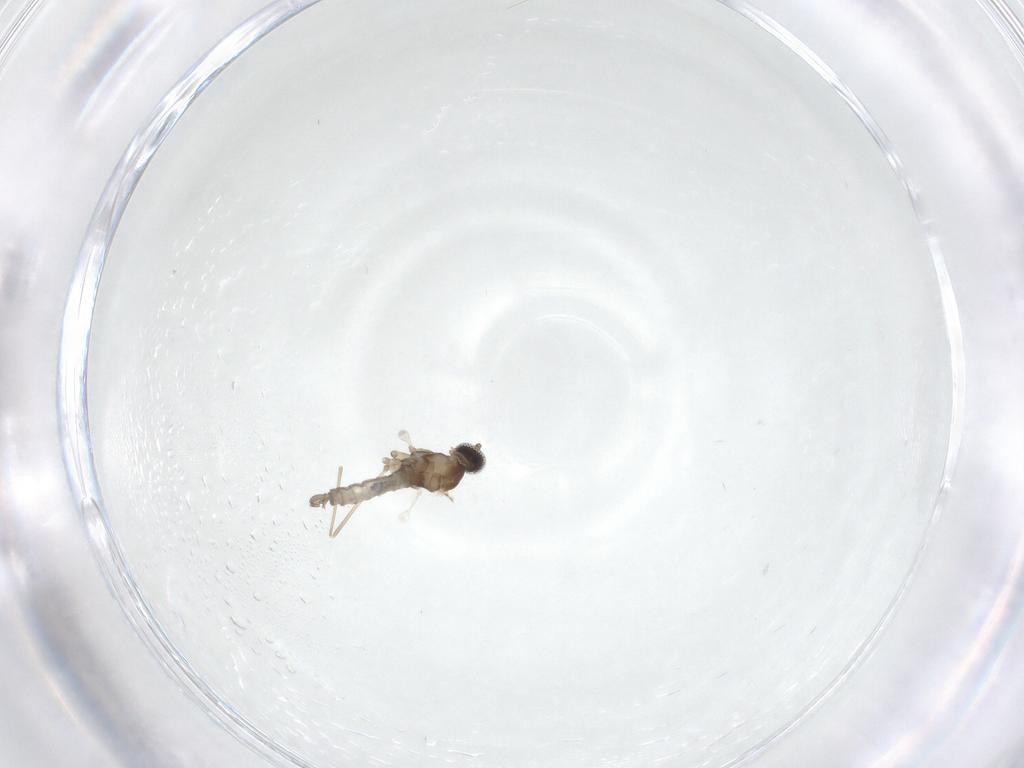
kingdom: Animalia
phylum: Arthropoda
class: Insecta
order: Diptera
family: Cecidomyiidae
